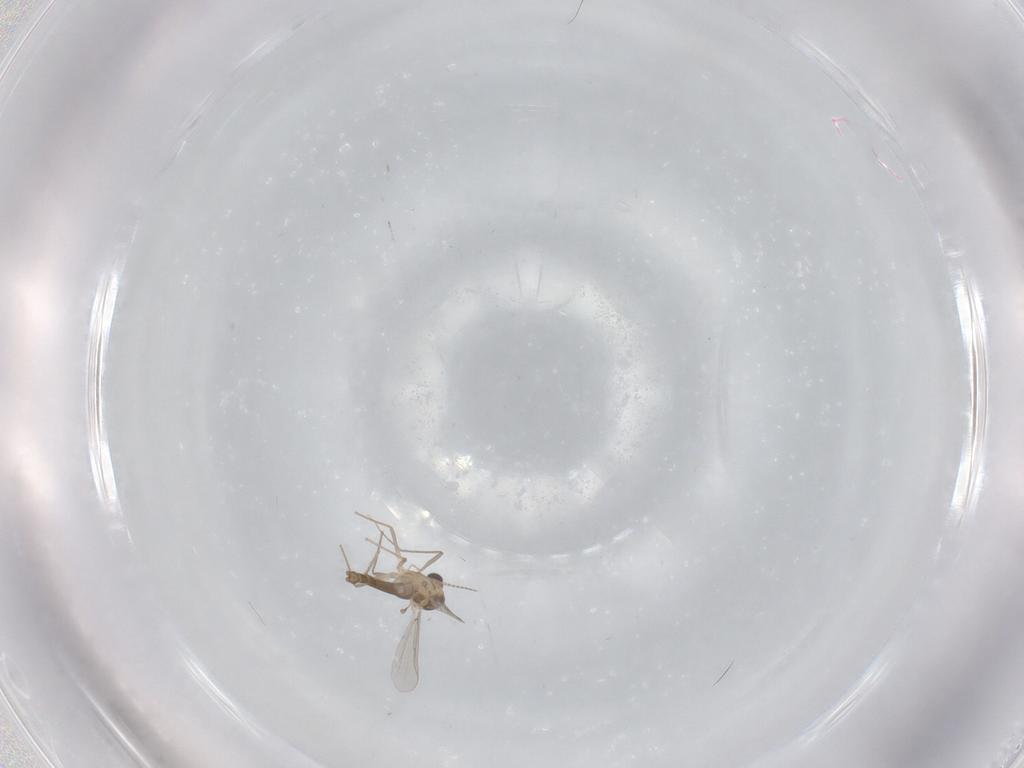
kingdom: Animalia
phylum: Arthropoda
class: Insecta
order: Diptera
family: Chironomidae
